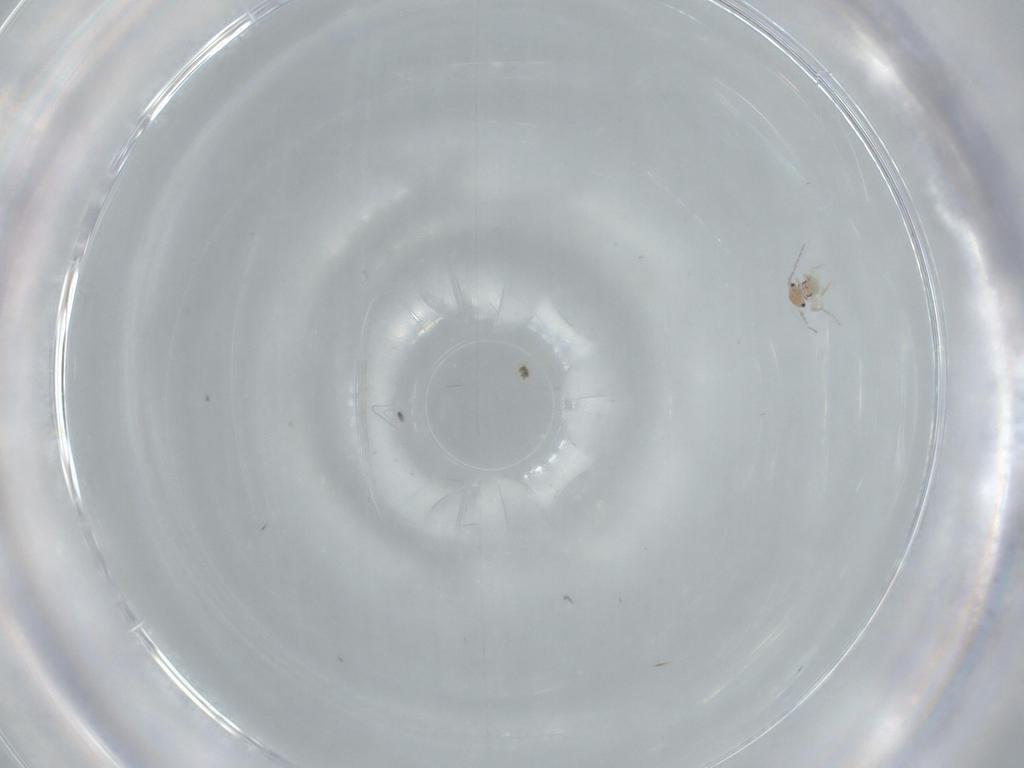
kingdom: Animalia
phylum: Arthropoda
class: Insecta
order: Psocodea
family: Lepidopsocidae
